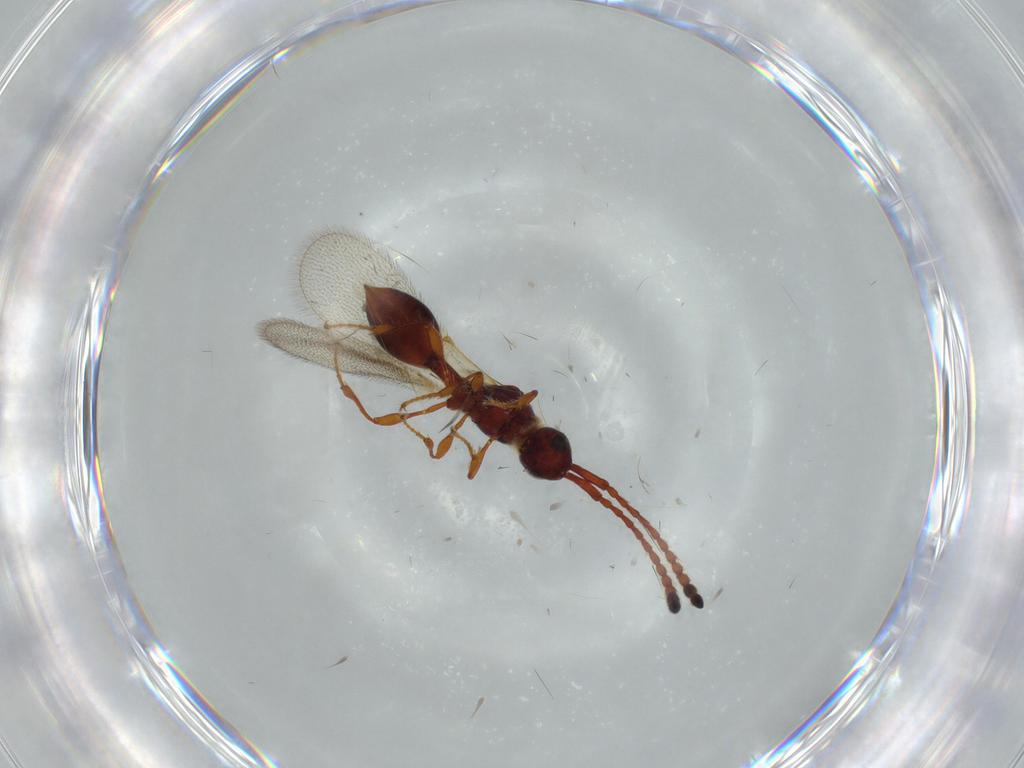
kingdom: Animalia
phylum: Arthropoda
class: Insecta
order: Hymenoptera
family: Diapriidae
